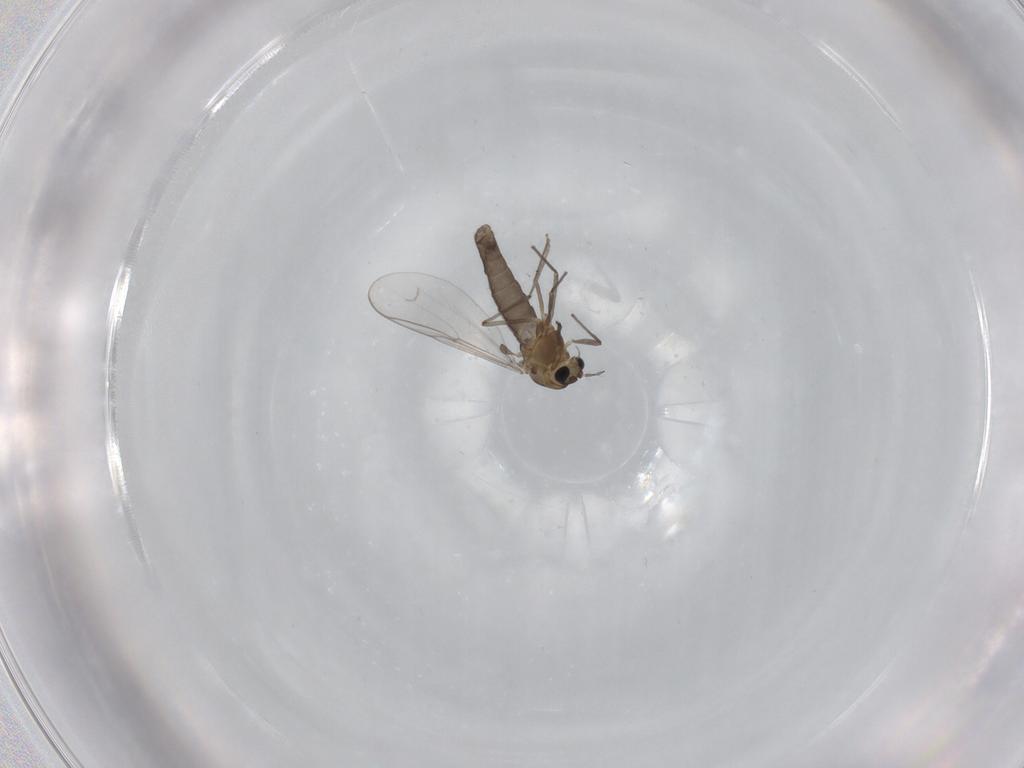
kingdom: Animalia
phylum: Arthropoda
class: Insecta
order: Diptera
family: Chironomidae
